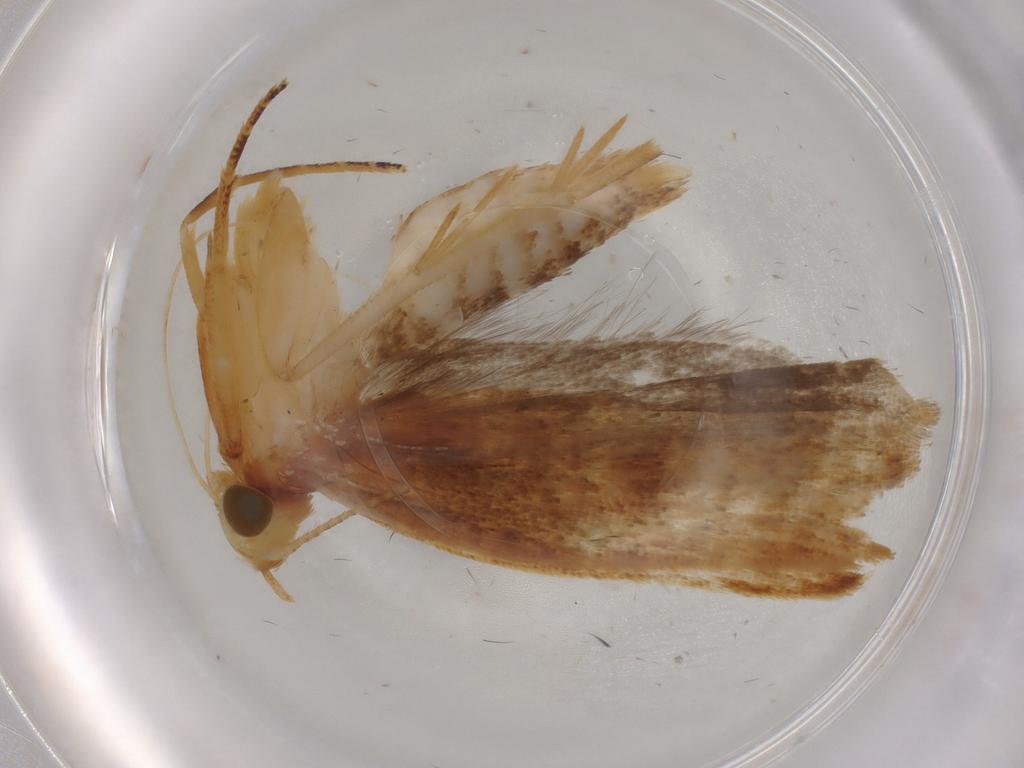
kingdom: Animalia
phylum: Arthropoda
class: Insecta
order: Lepidoptera
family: Gelechiidae
